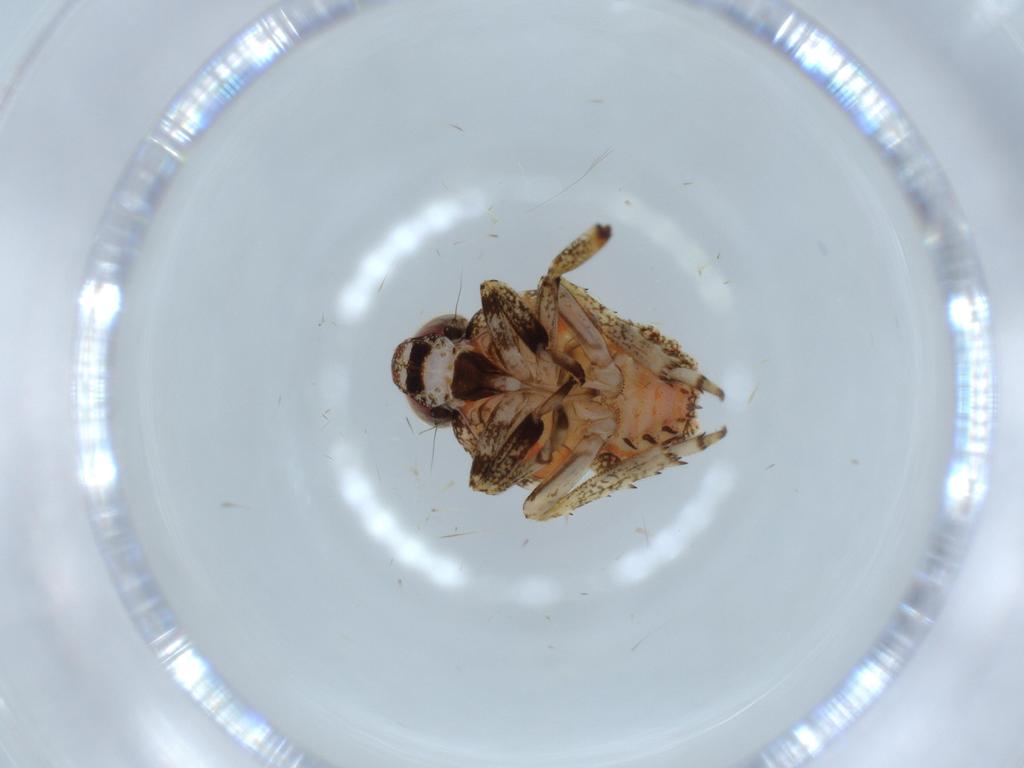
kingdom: Animalia
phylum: Arthropoda
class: Insecta
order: Hemiptera
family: Issidae
